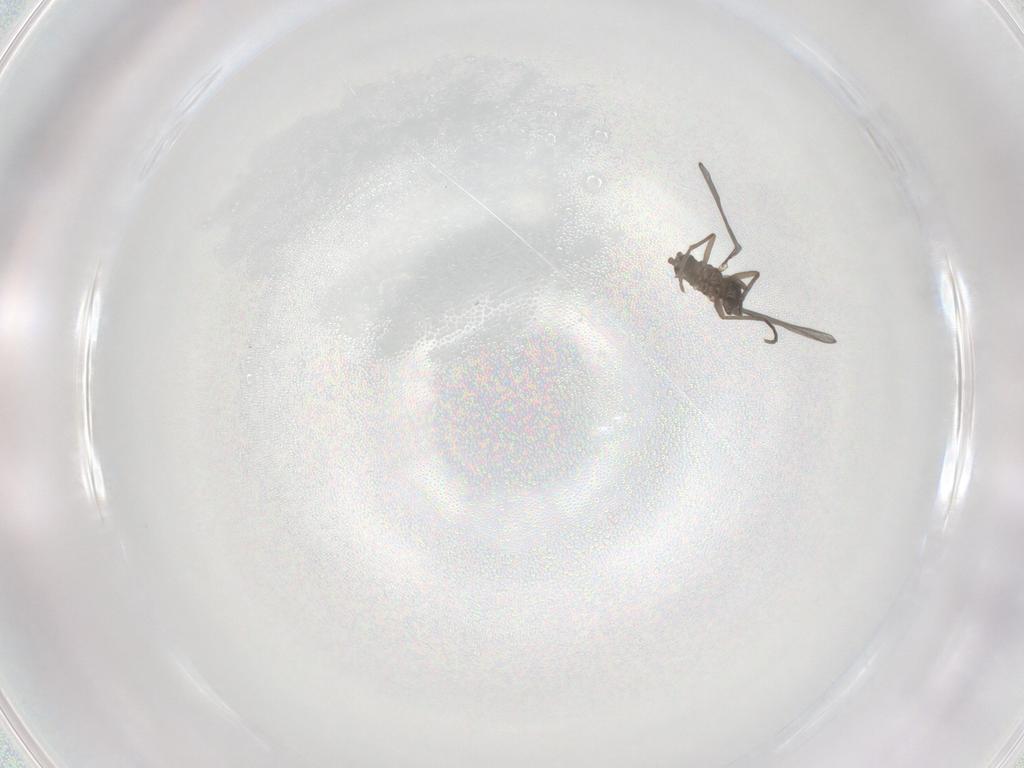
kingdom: Animalia
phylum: Arthropoda
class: Insecta
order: Diptera
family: Sciaridae
